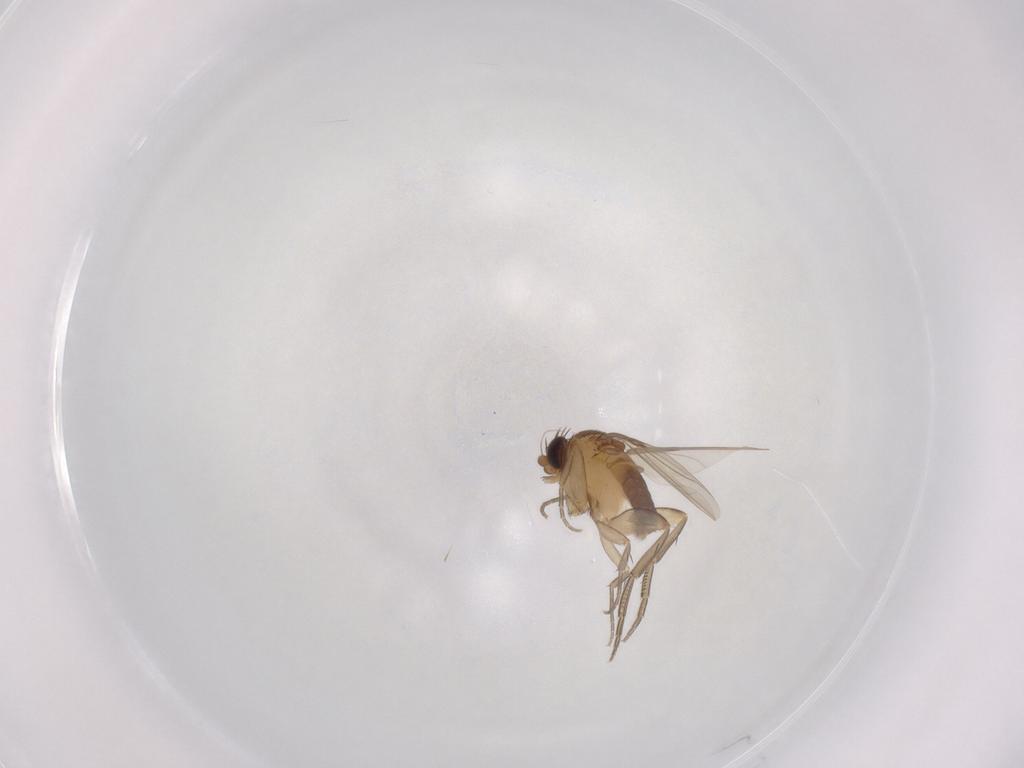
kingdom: Animalia
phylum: Arthropoda
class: Insecta
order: Diptera
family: Phoridae
